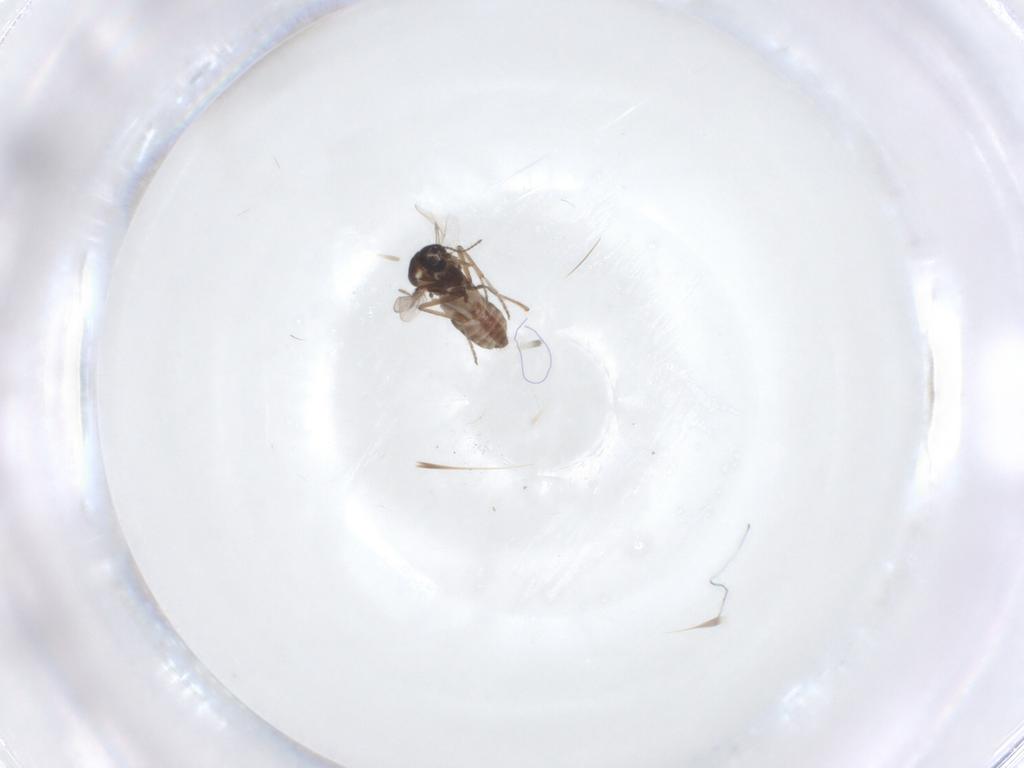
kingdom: Animalia
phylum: Arthropoda
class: Insecta
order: Diptera
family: Ceratopogonidae
